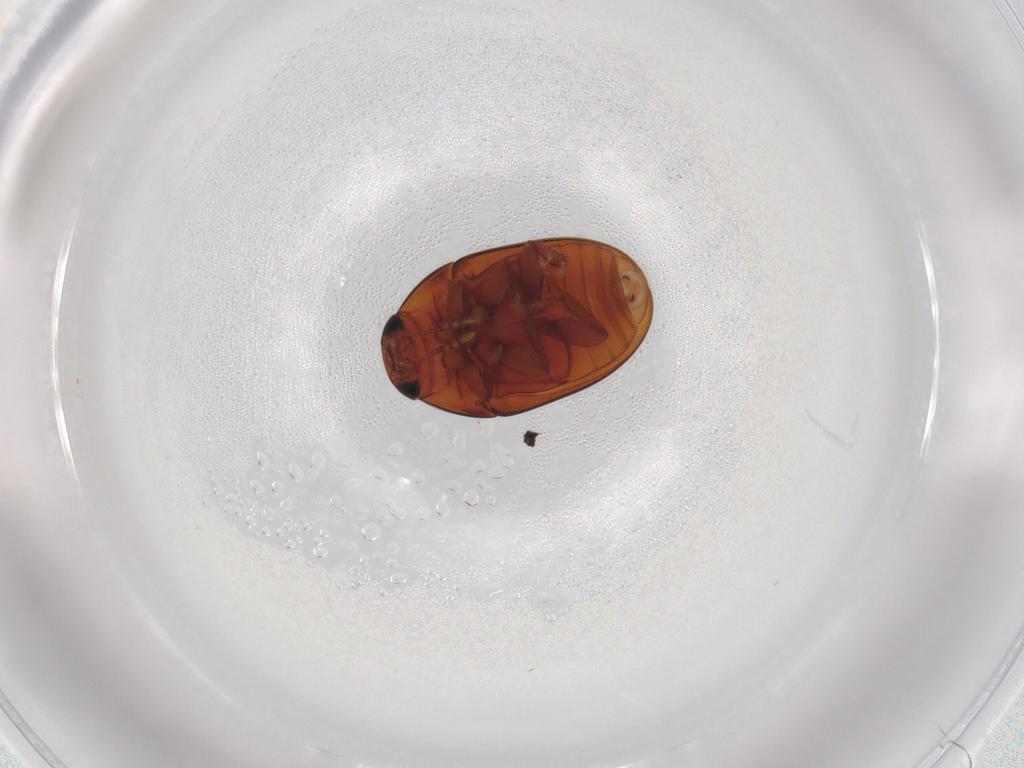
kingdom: Animalia
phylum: Arthropoda
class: Insecta
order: Coleoptera
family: Phalacridae
